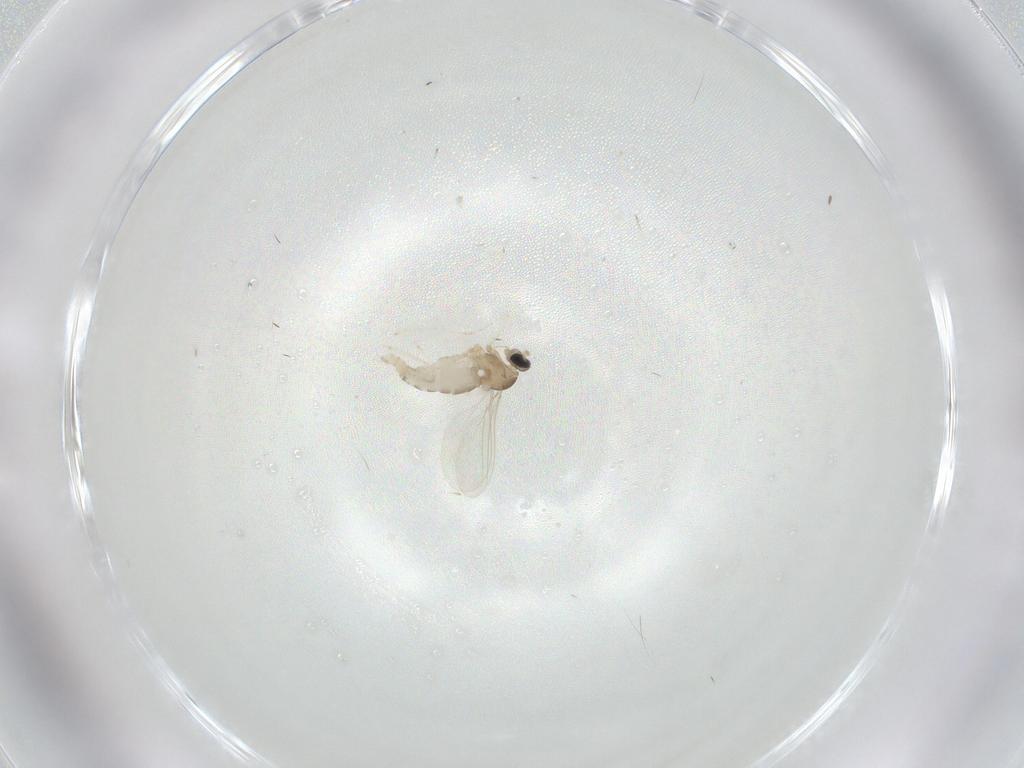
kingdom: Animalia
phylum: Arthropoda
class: Insecta
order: Diptera
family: Cecidomyiidae
